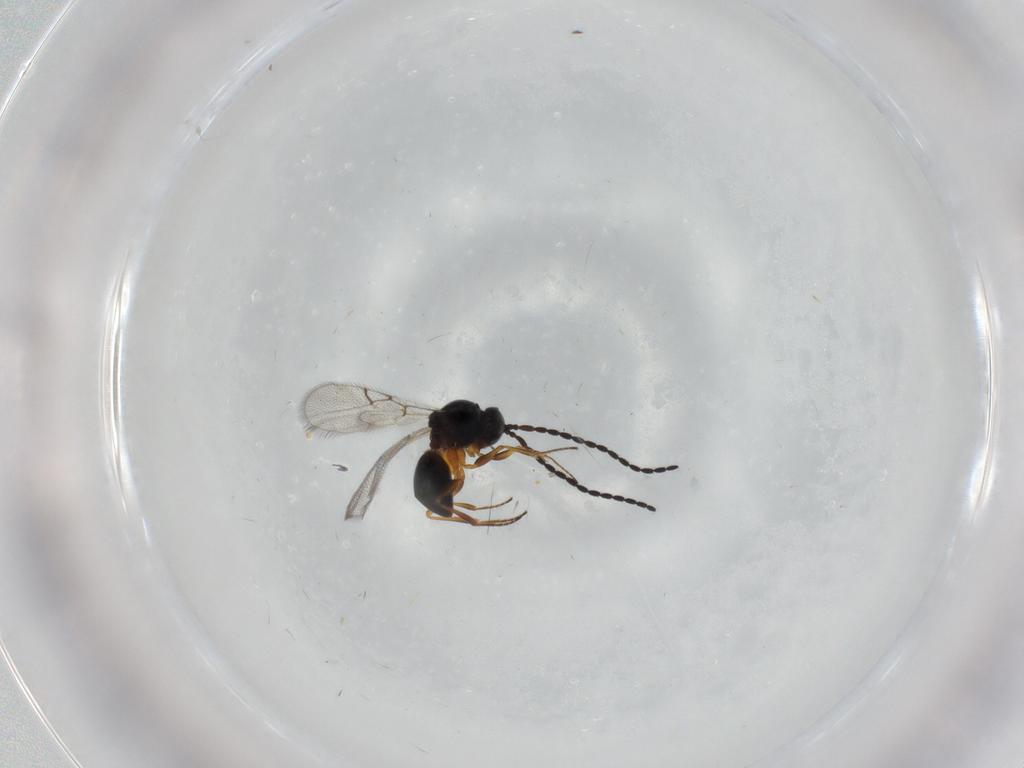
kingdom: Animalia
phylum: Arthropoda
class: Insecta
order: Hymenoptera
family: Figitidae
